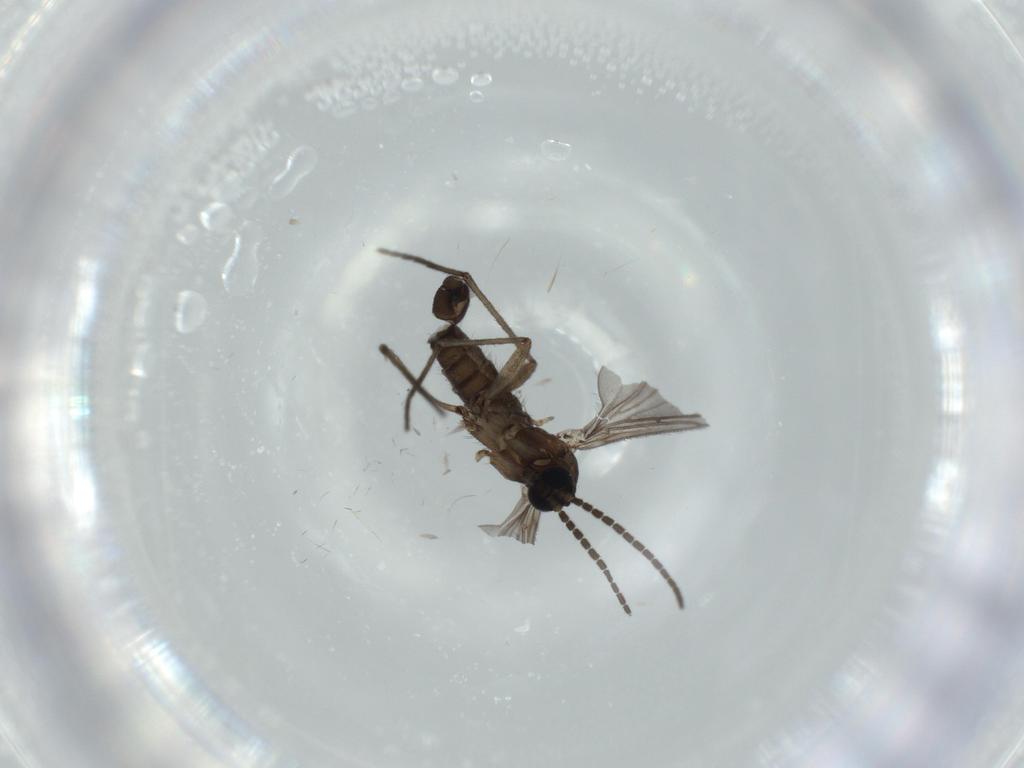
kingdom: Animalia
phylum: Arthropoda
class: Insecta
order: Diptera
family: Sciaridae
